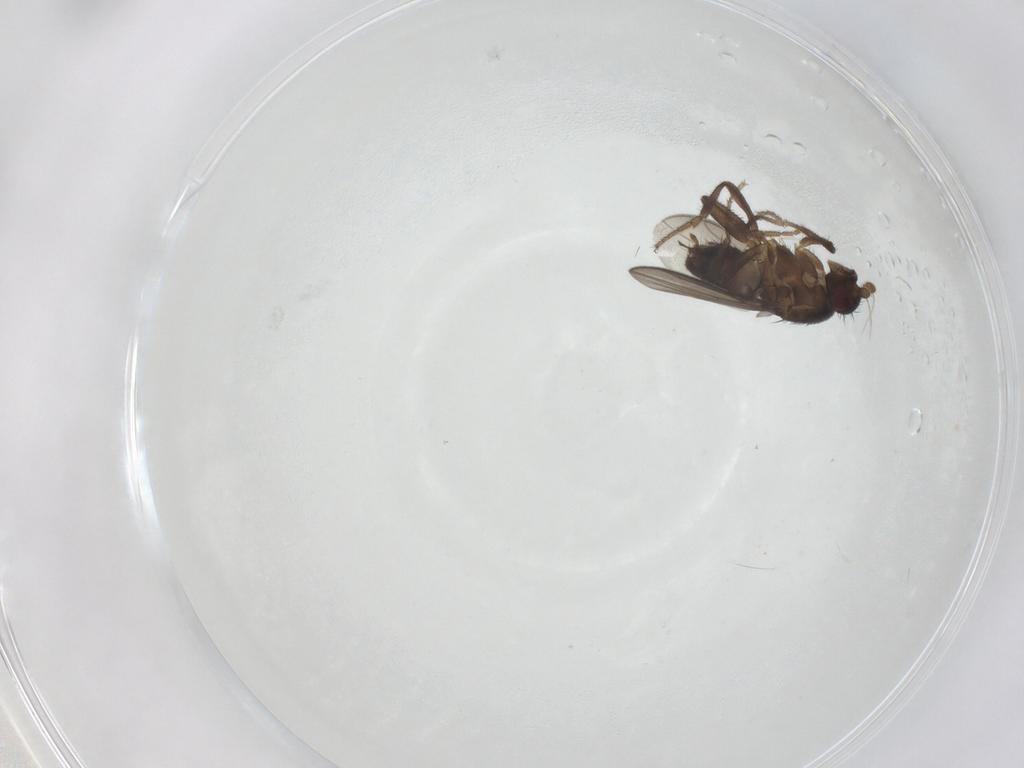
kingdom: Animalia
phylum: Arthropoda
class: Insecta
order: Diptera
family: Sphaeroceridae
